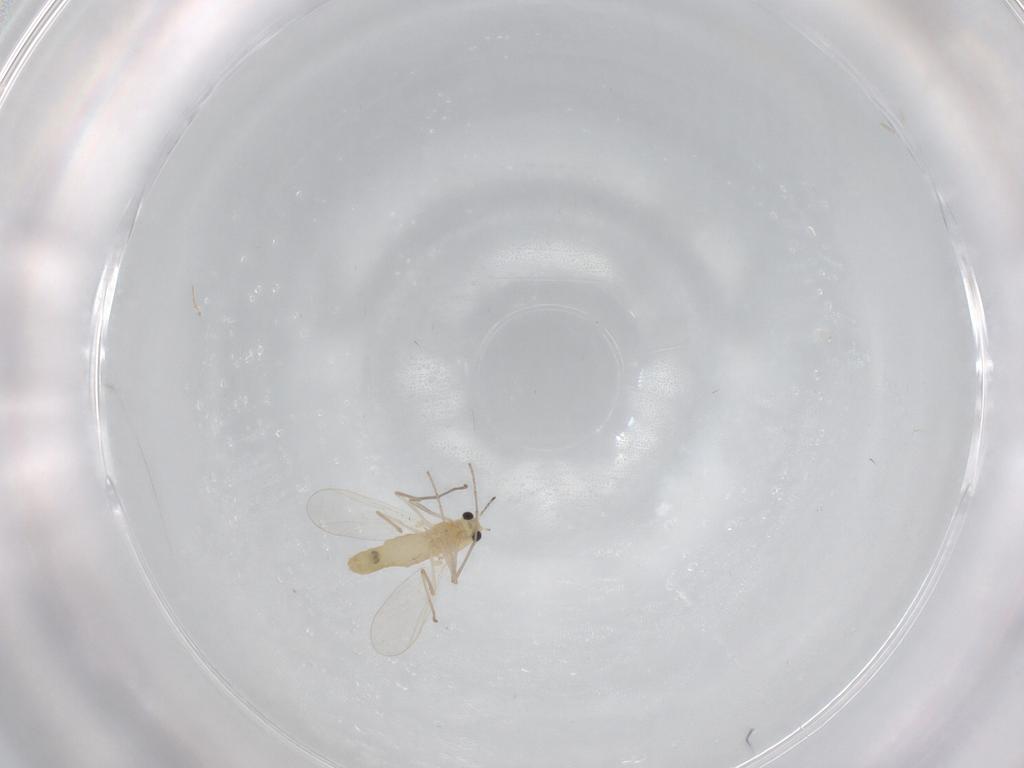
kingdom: Animalia
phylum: Arthropoda
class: Insecta
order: Diptera
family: Chironomidae
